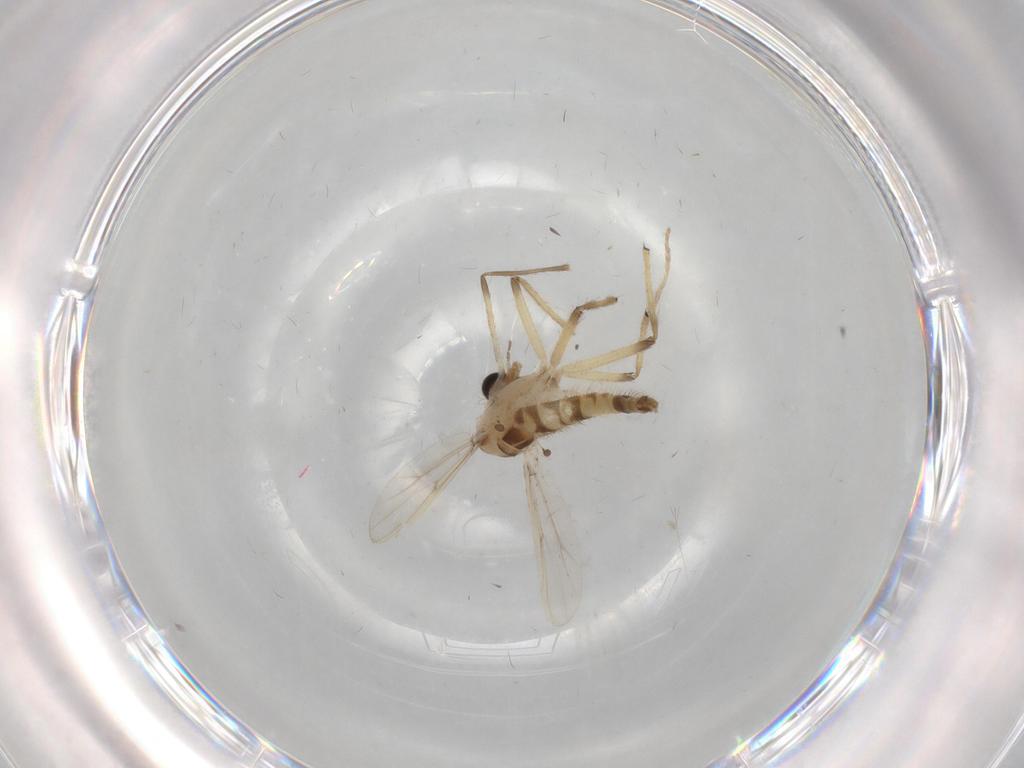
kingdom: Animalia
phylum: Arthropoda
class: Insecta
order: Diptera
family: Chironomidae
